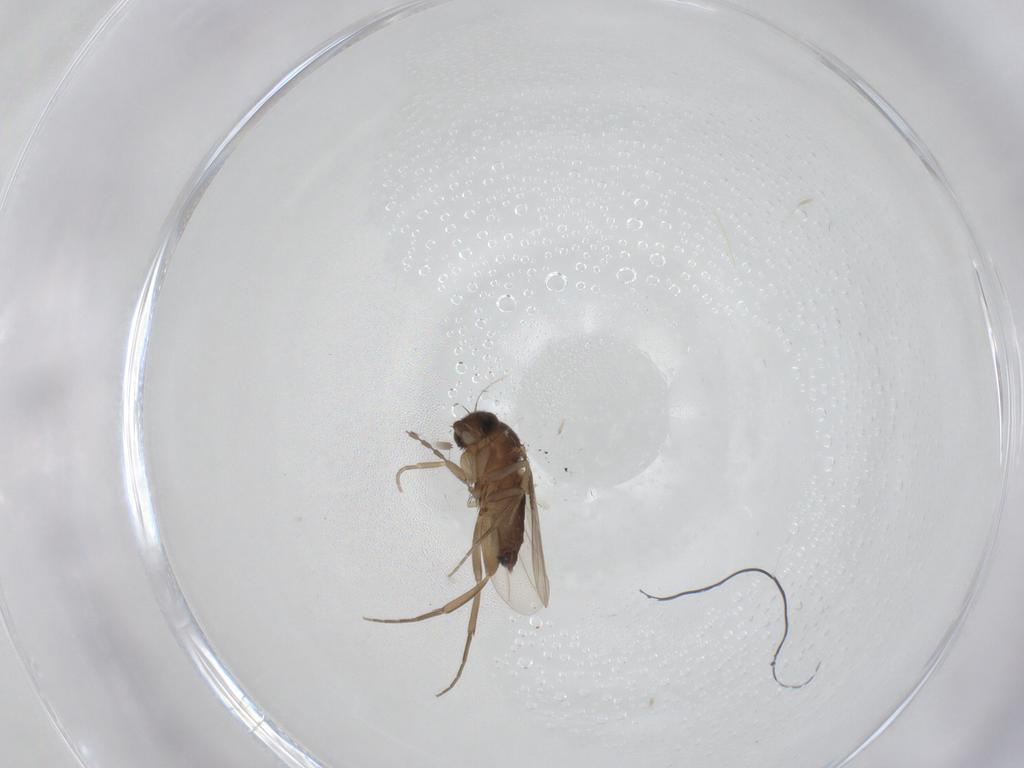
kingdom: Animalia
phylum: Arthropoda
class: Insecta
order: Diptera
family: Phoridae
